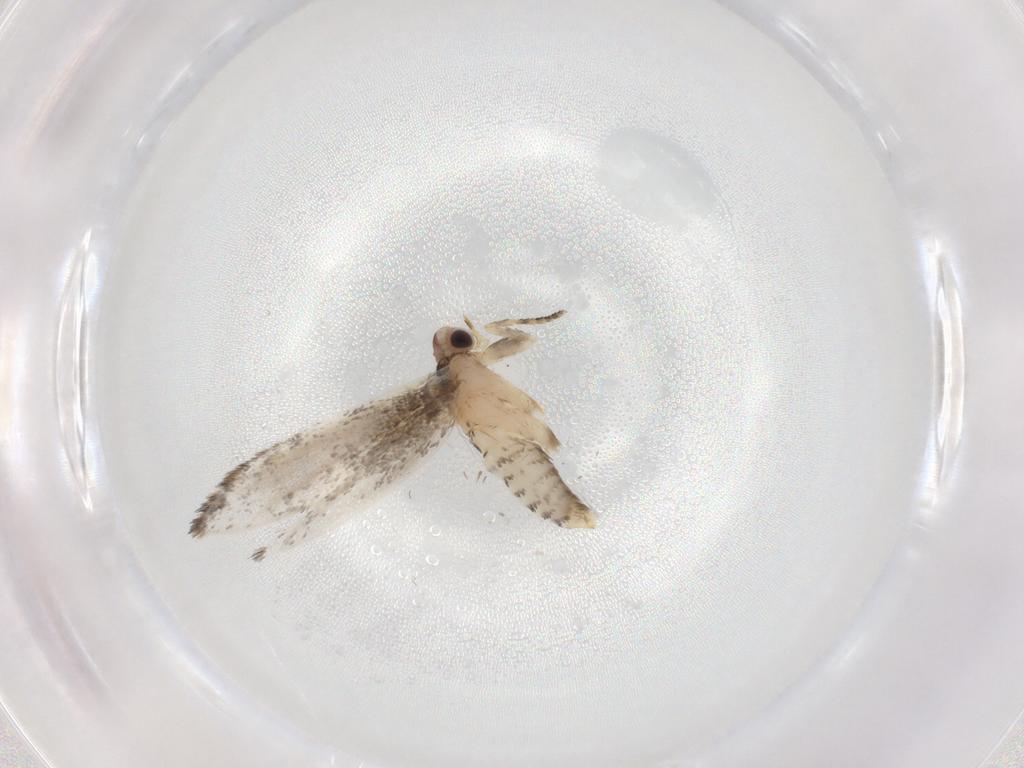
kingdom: Animalia
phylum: Arthropoda
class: Insecta
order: Lepidoptera
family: Tineidae
